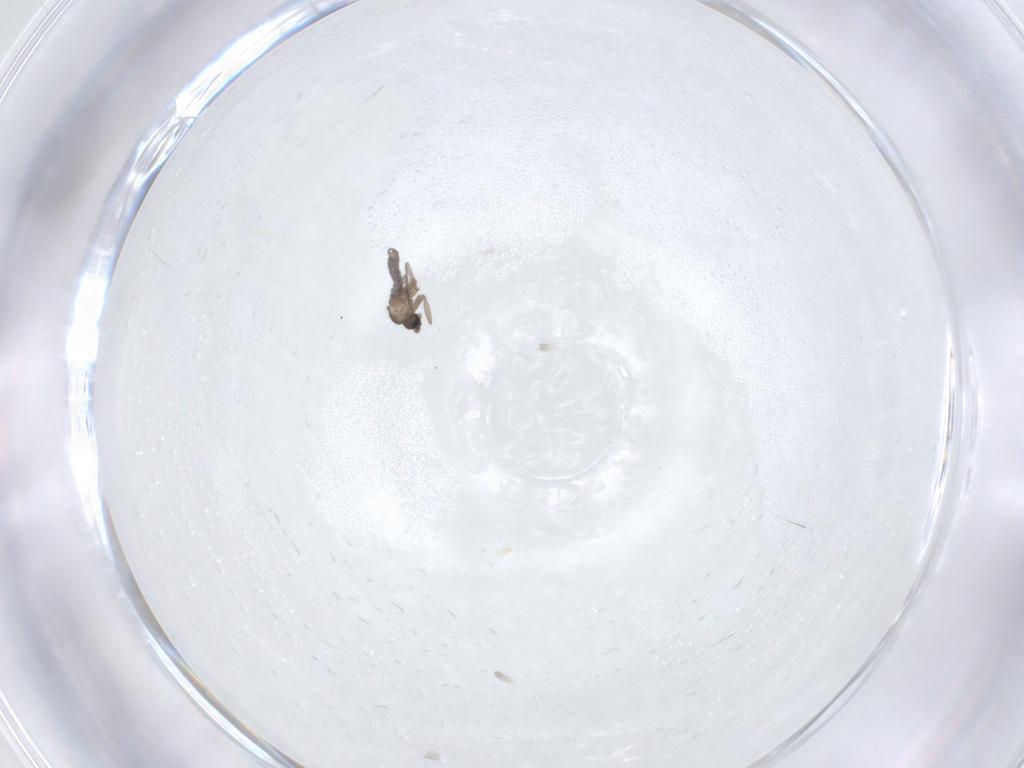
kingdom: Animalia
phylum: Arthropoda
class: Insecta
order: Diptera
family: Sciaridae
